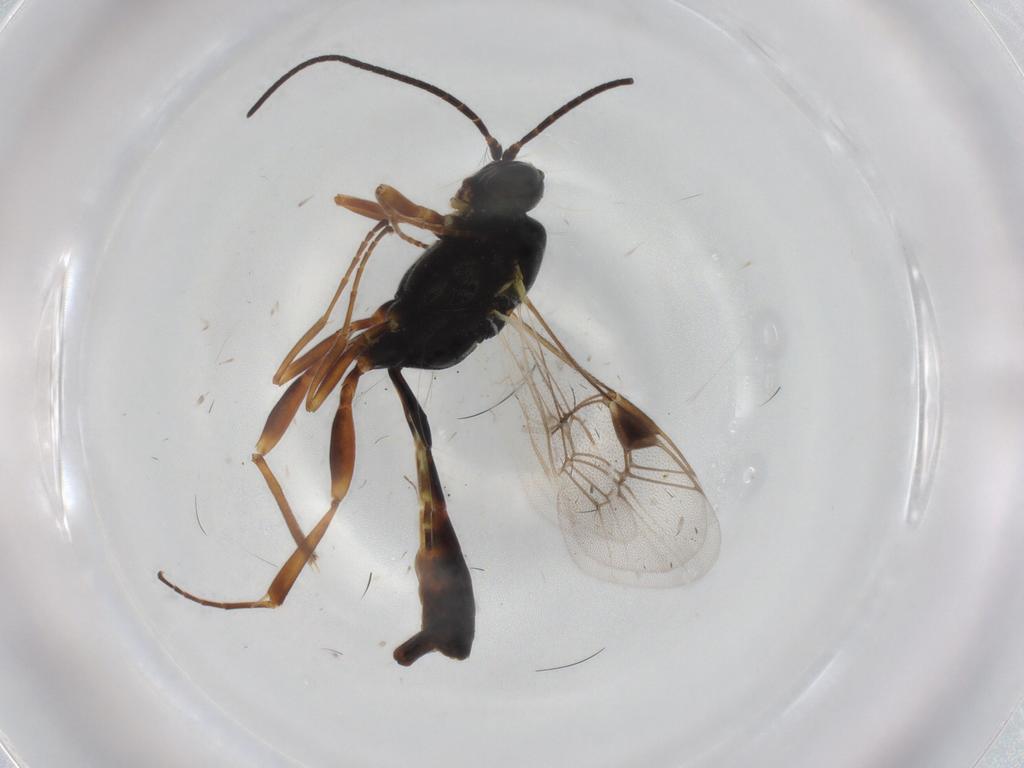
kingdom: Animalia
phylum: Arthropoda
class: Insecta
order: Hymenoptera
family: Ichneumonidae
